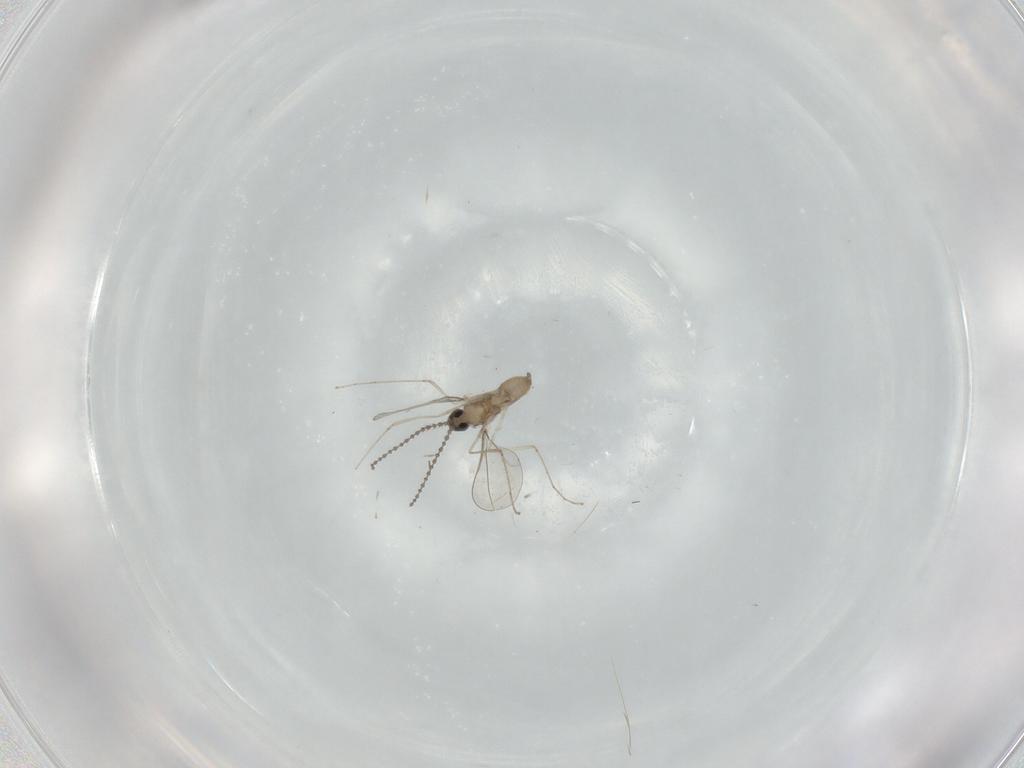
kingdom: Animalia
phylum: Arthropoda
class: Insecta
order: Diptera
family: Cecidomyiidae
